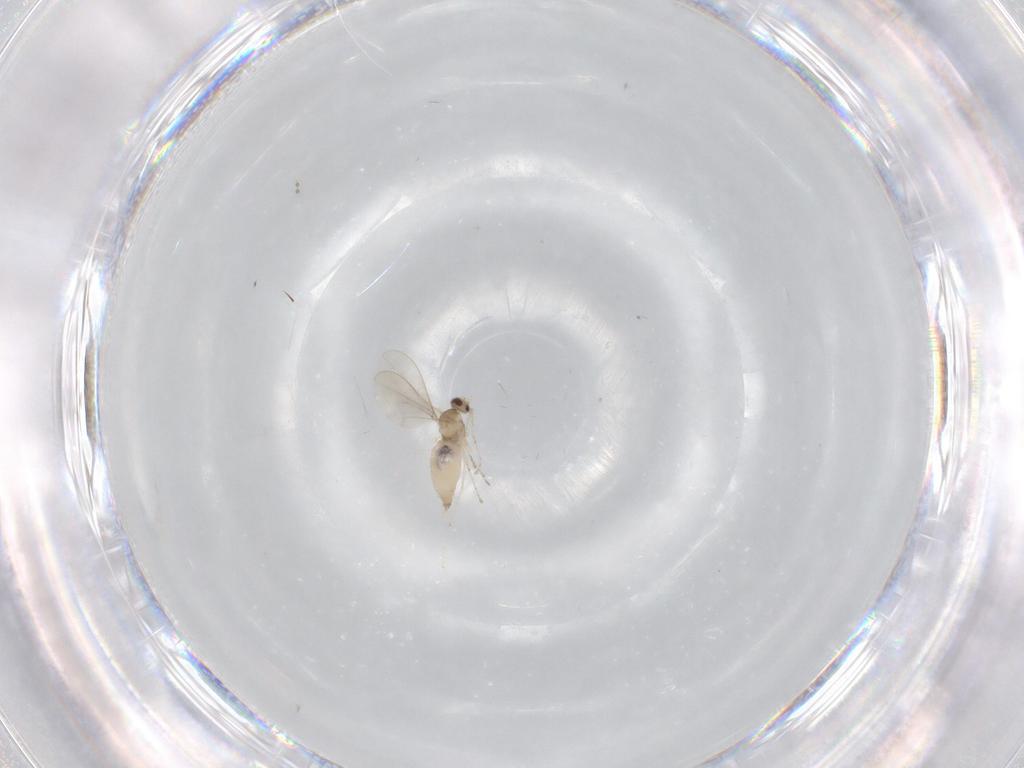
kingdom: Animalia
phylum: Arthropoda
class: Insecta
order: Diptera
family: Cecidomyiidae
